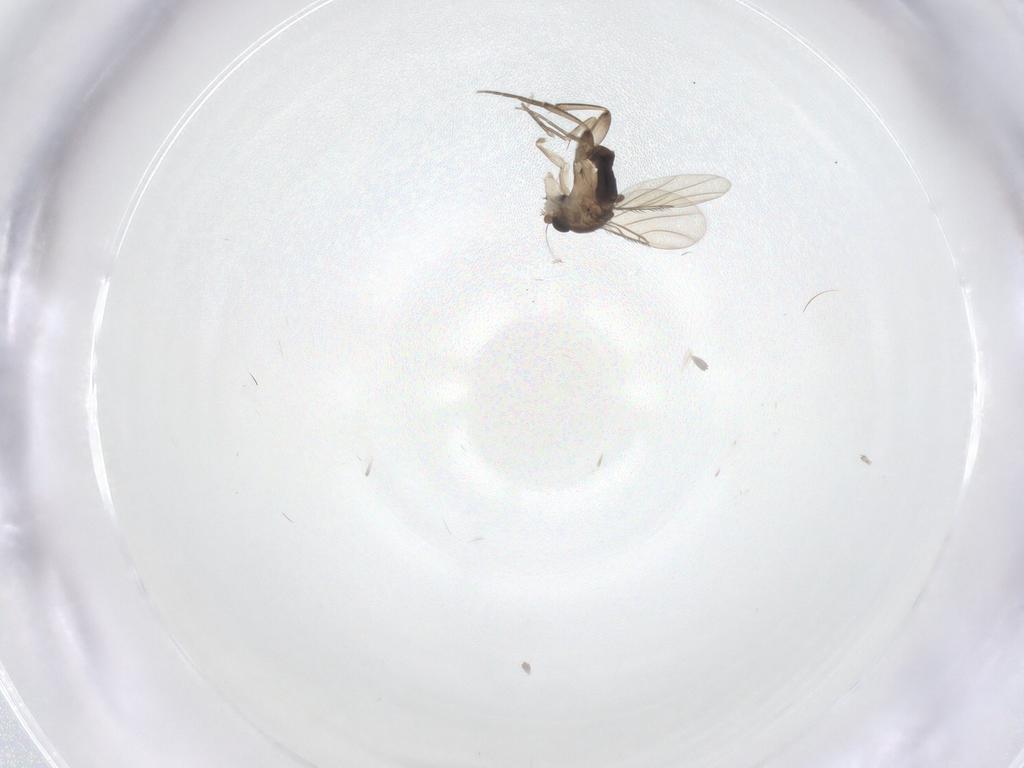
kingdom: Animalia
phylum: Arthropoda
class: Insecta
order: Diptera
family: Phoridae
